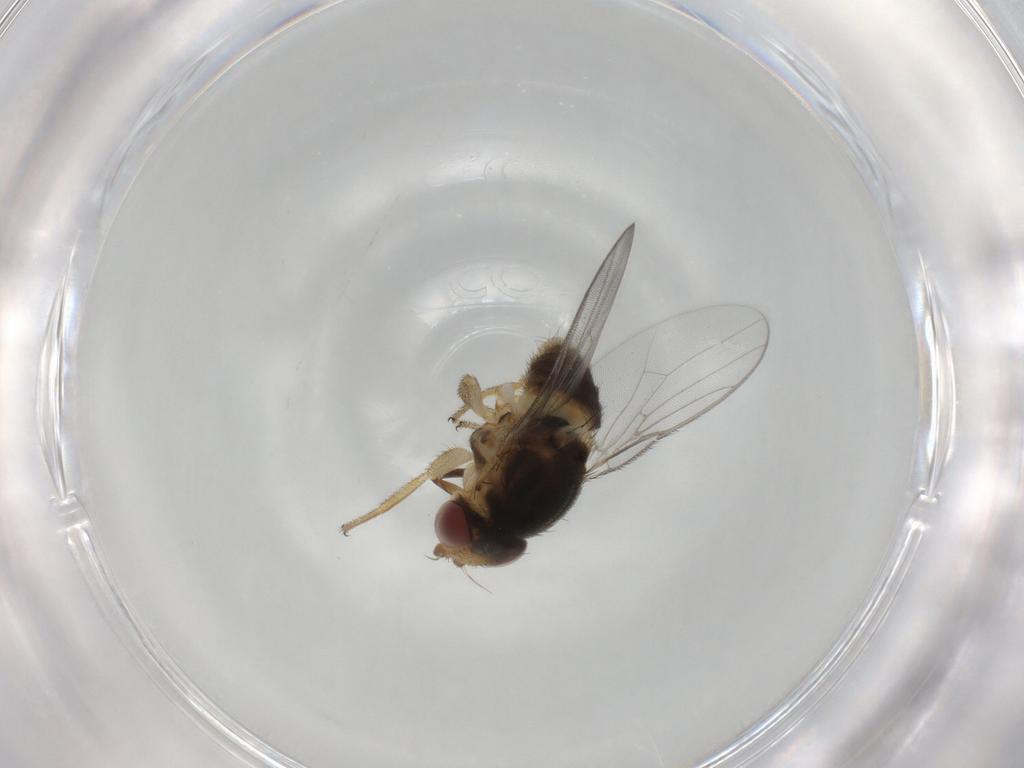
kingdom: Animalia
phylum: Arthropoda
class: Insecta
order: Diptera
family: Chloropidae
